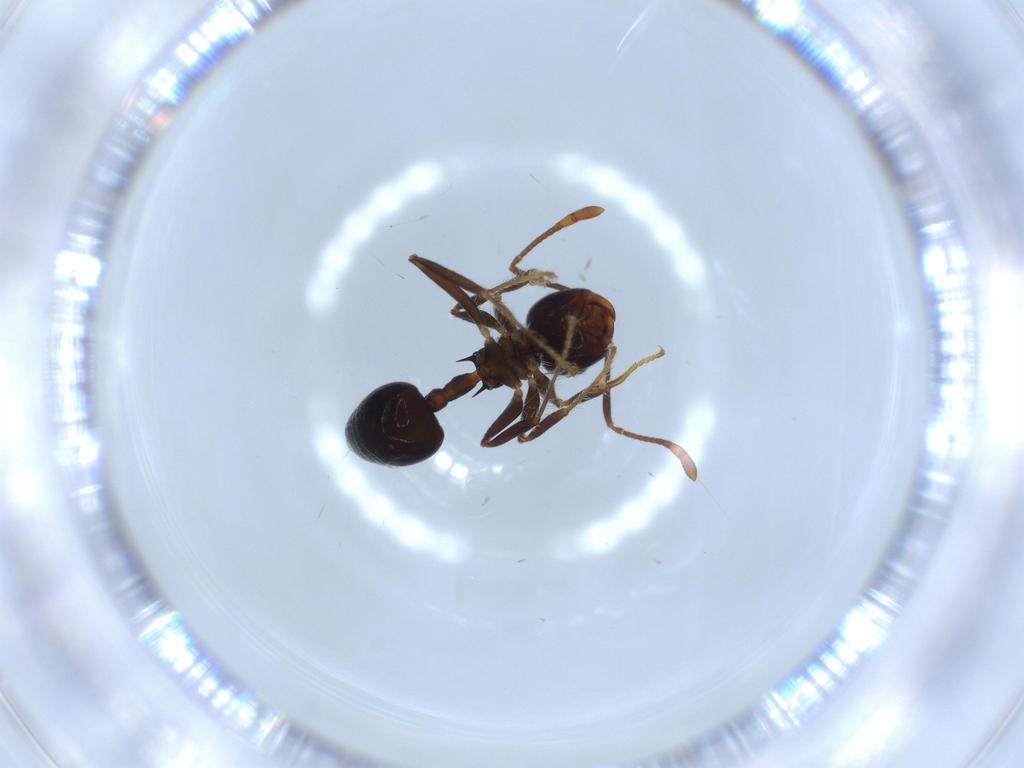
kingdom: Animalia
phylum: Arthropoda
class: Insecta
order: Hymenoptera
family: Formicidae
